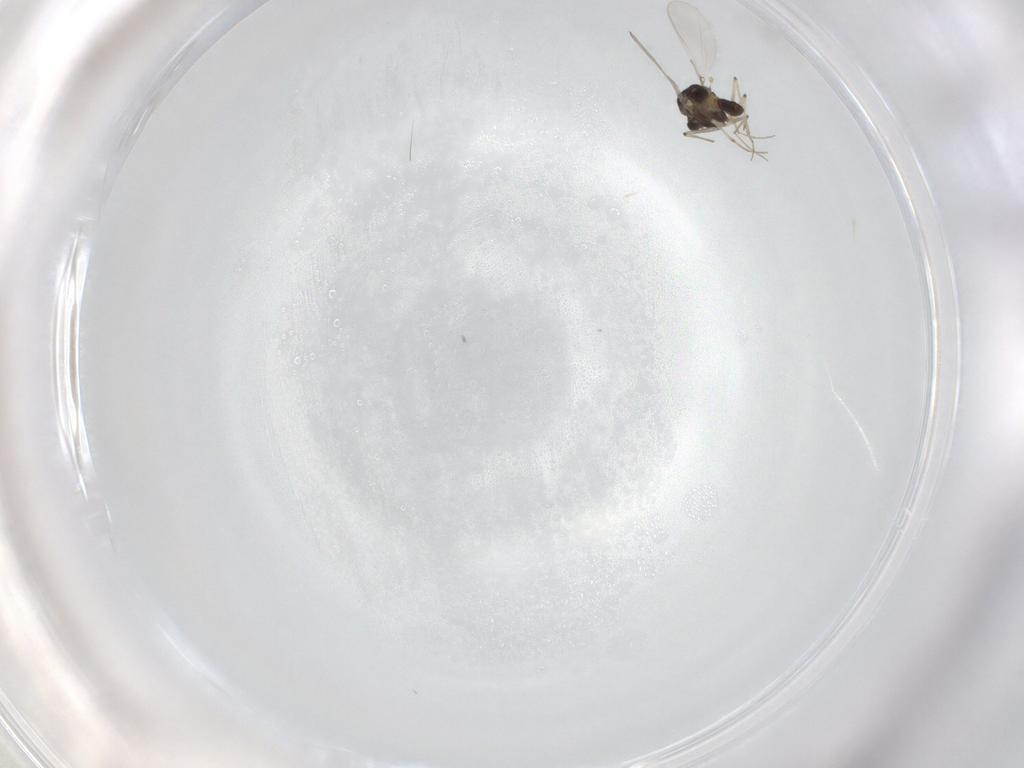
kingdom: Animalia
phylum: Arthropoda
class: Insecta
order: Diptera
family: Chironomidae
